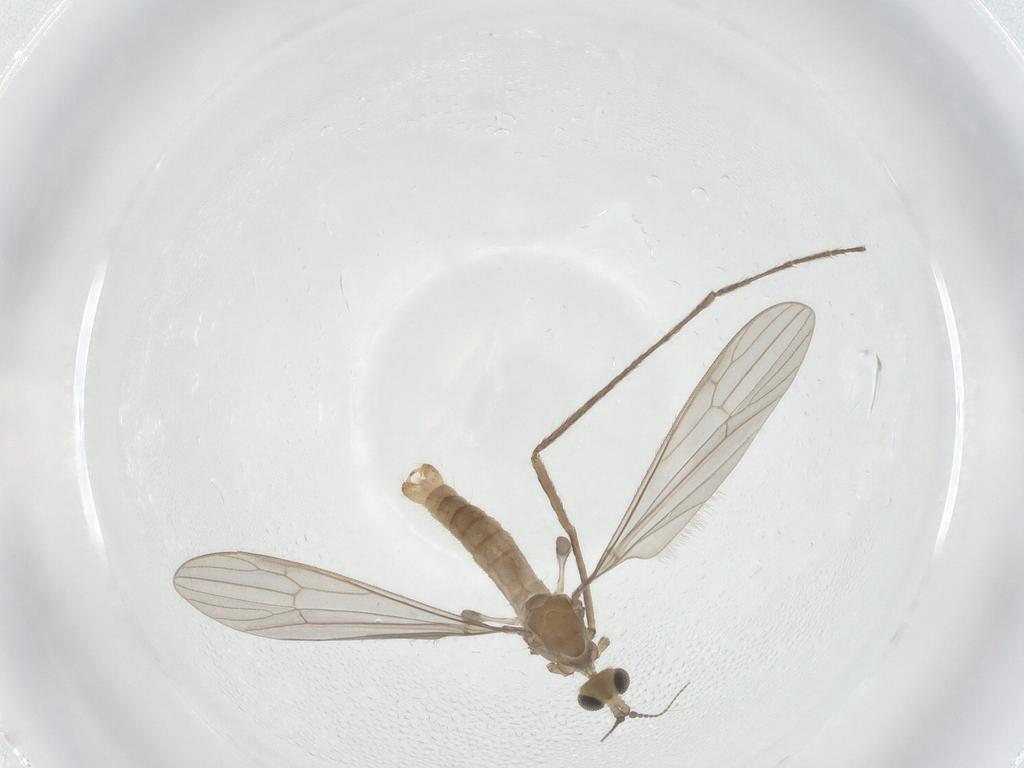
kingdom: Animalia
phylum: Arthropoda
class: Insecta
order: Diptera
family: Limoniidae
